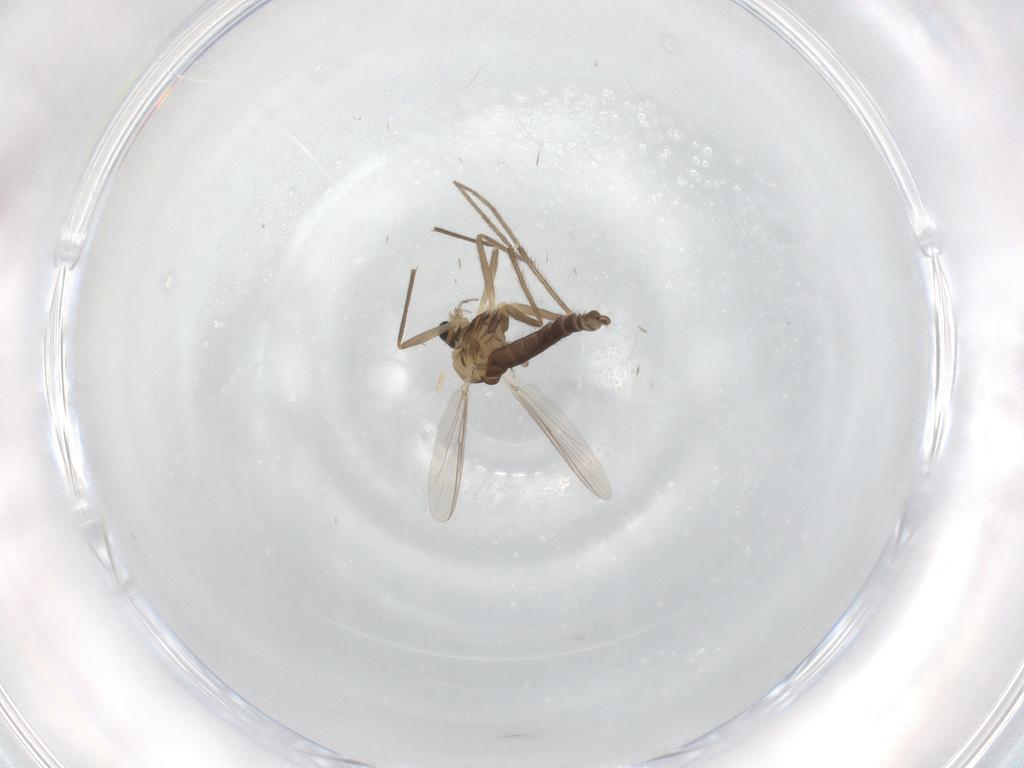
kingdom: Animalia
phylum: Arthropoda
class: Insecta
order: Diptera
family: Chironomidae
